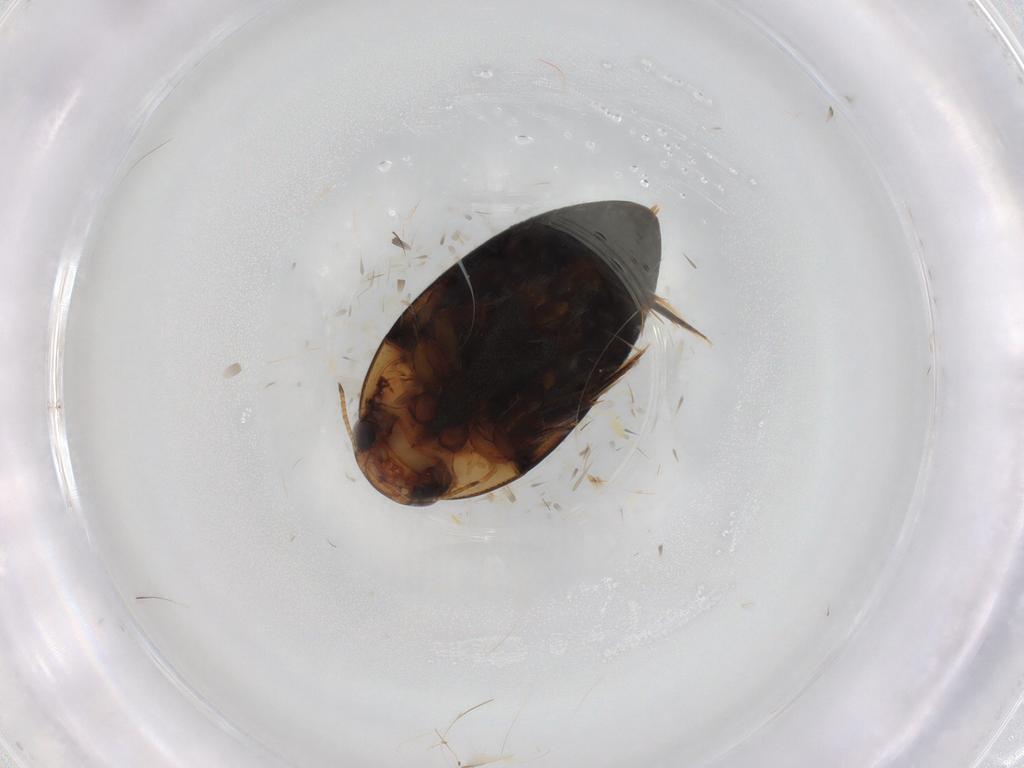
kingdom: Animalia
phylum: Arthropoda
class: Insecta
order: Coleoptera
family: Noteridae
